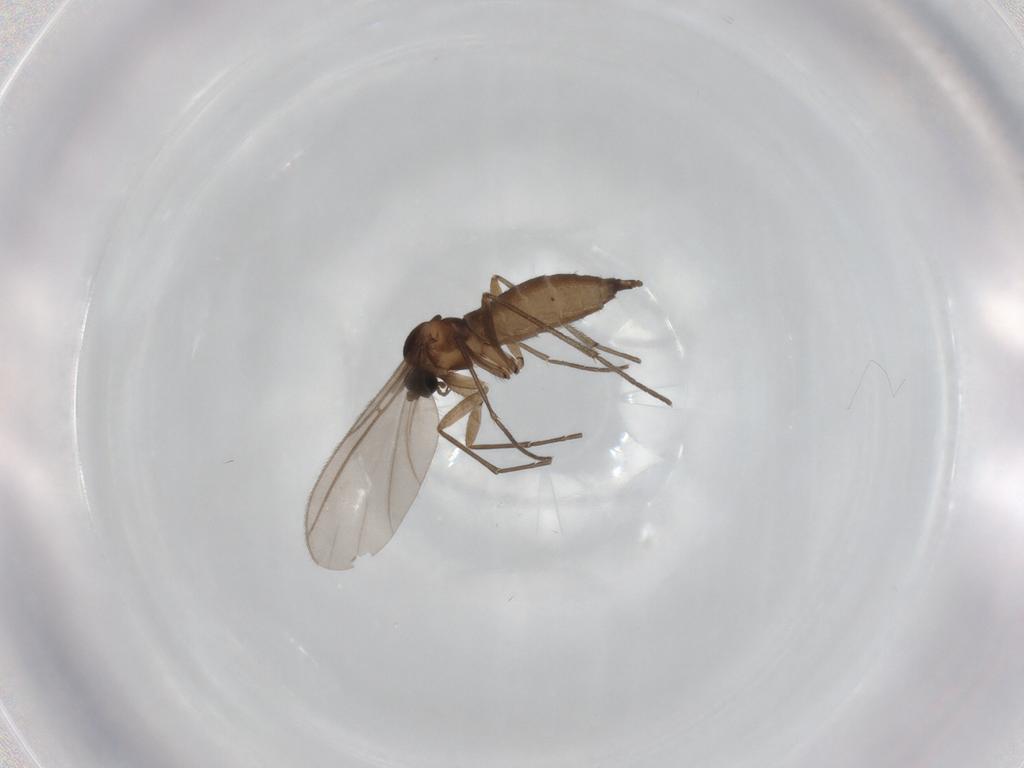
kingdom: Animalia
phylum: Arthropoda
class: Insecta
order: Diptera
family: Sciaridae
